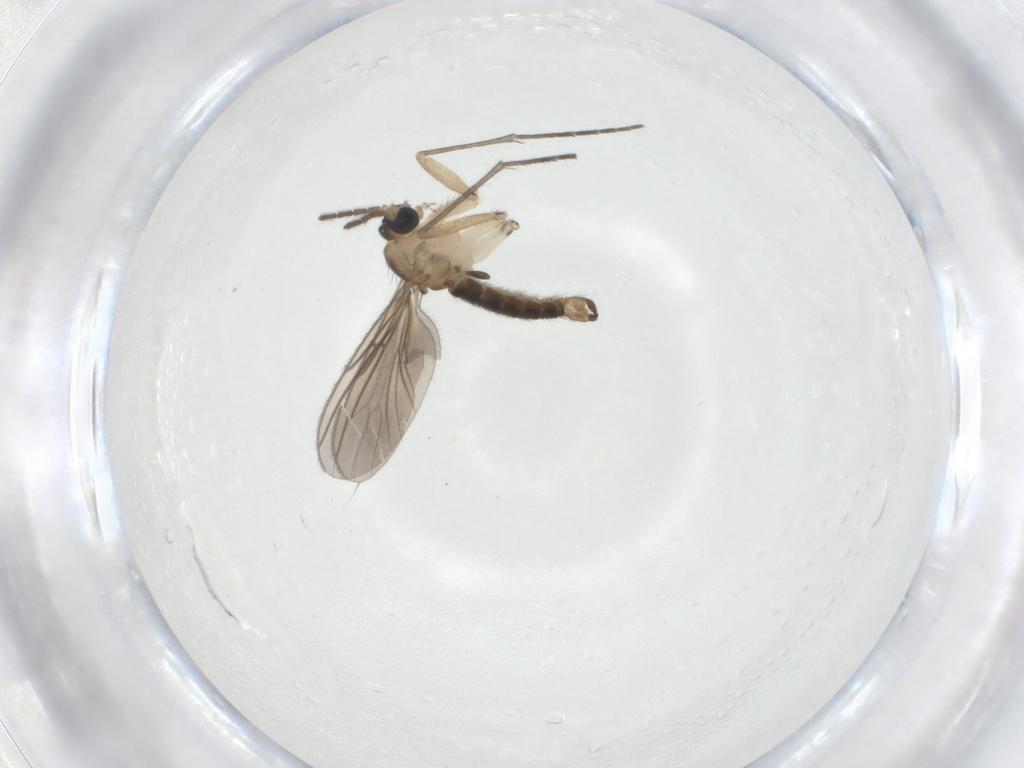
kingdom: Animalia
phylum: Arthropoda
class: Insecta
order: Diptera
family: Sciaridae
